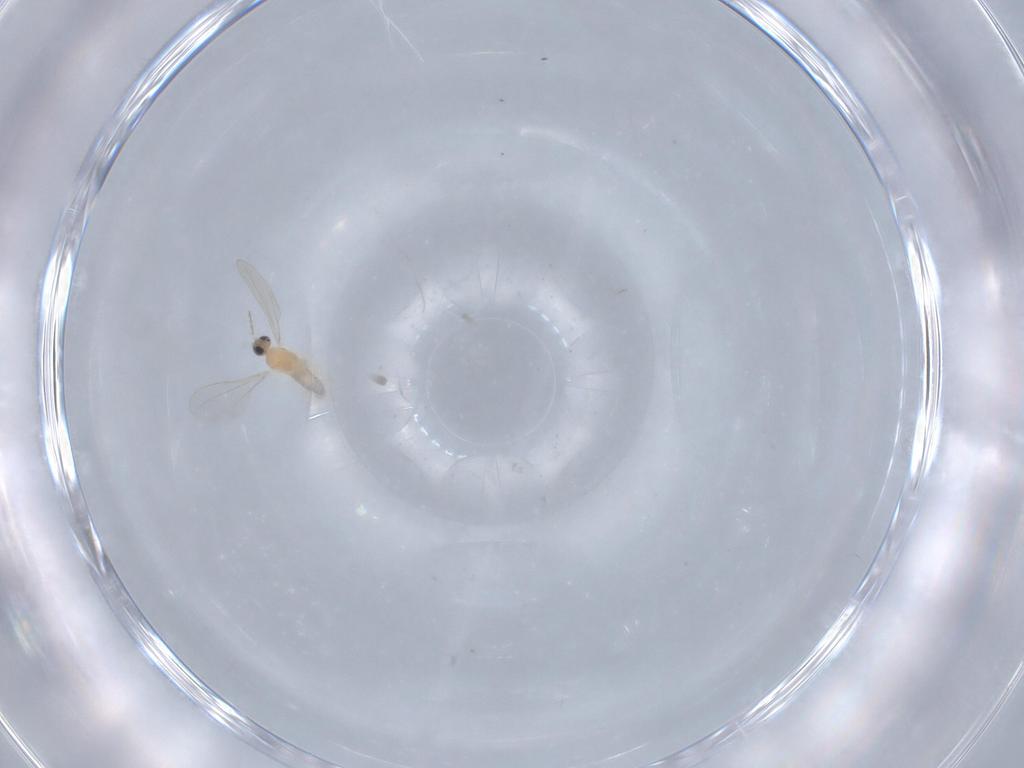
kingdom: Animalia
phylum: Arthropoda
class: Insecta
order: Diptera
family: Cecidomyiidae
